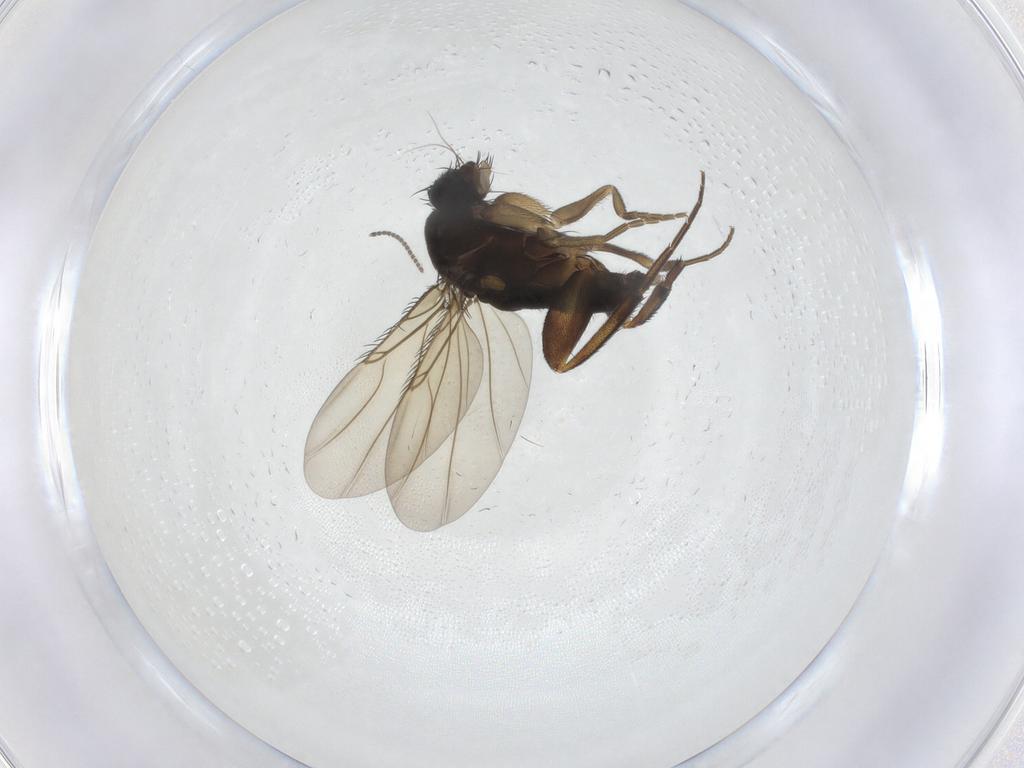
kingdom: Animalia
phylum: Arthropoda
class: Insecta
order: Diptera
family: Phoridae
